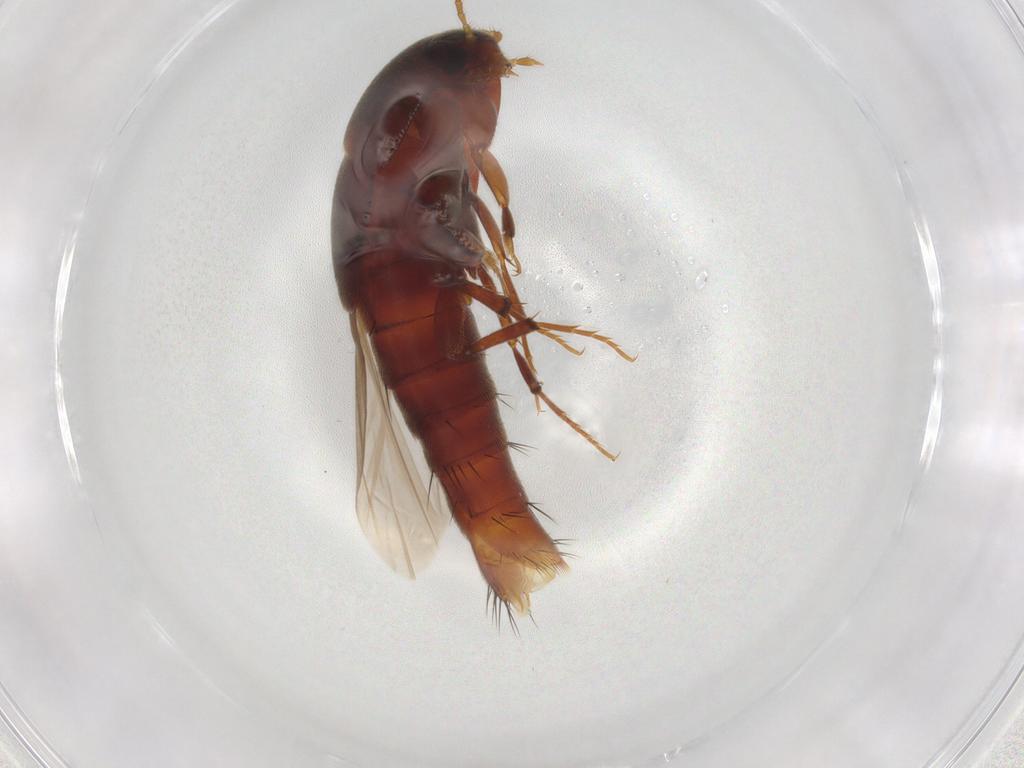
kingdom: Animalia
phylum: Arthropoda
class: Insecta
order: Coleoptera
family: Staphylinidae
